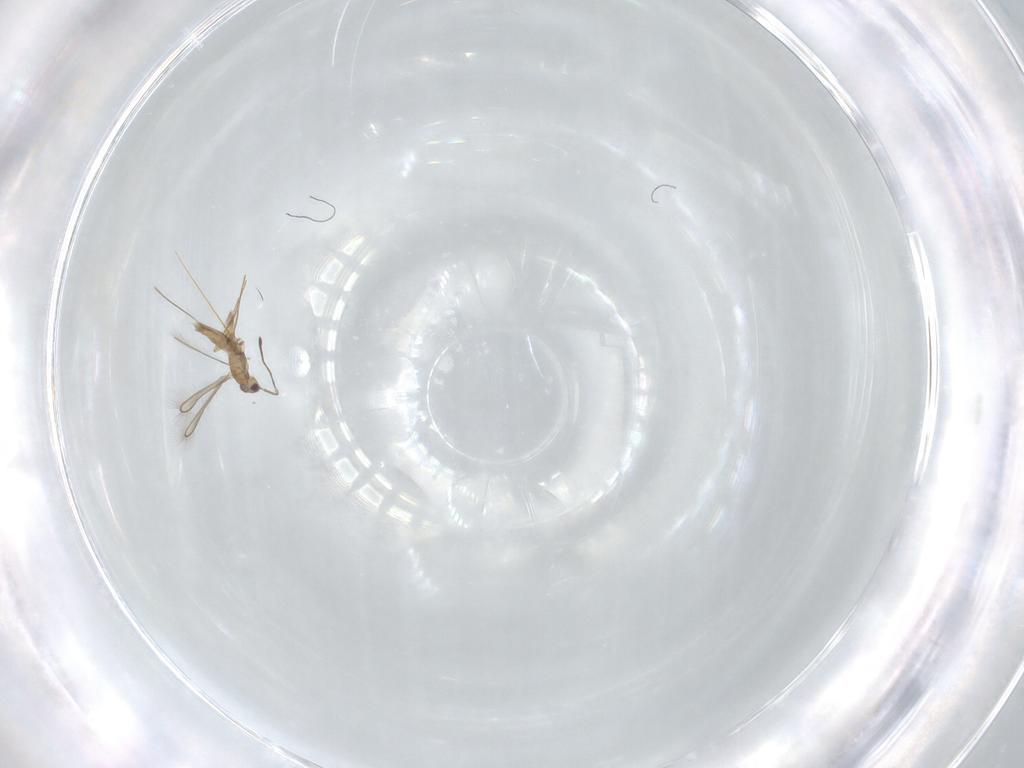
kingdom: Animalia
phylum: Arthropoda
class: Insecta
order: Hymenoptera
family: Mymaridae
